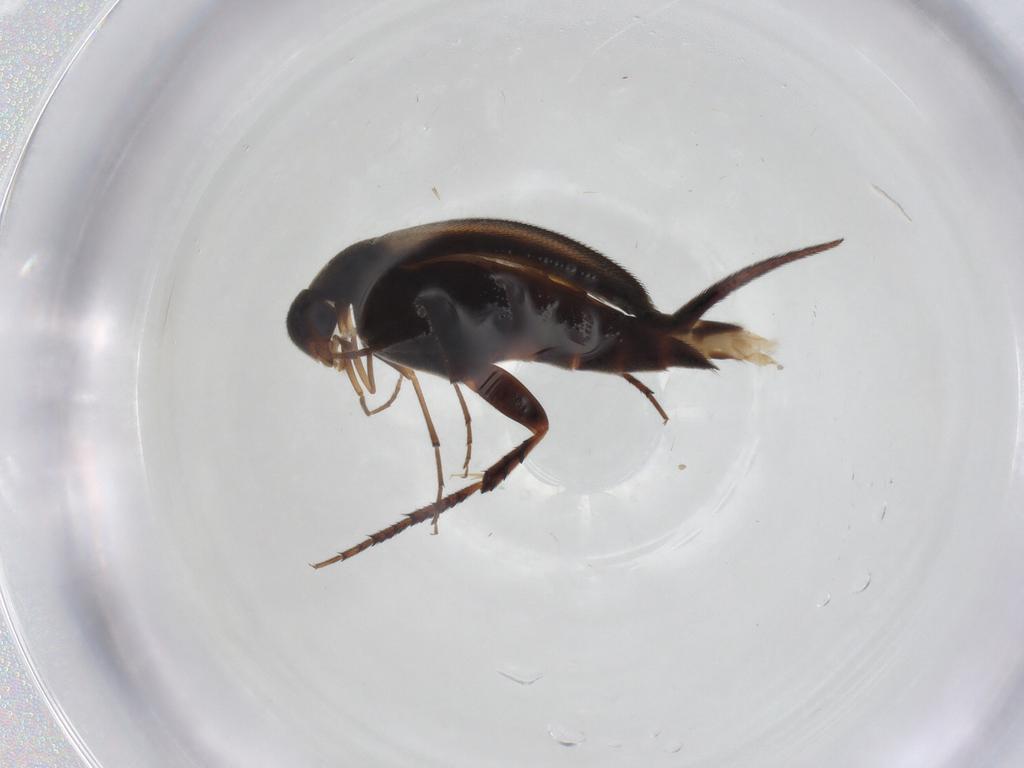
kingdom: Animalia
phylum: Arthropoda
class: Insecta
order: Coleoptera
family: Mordellidae
